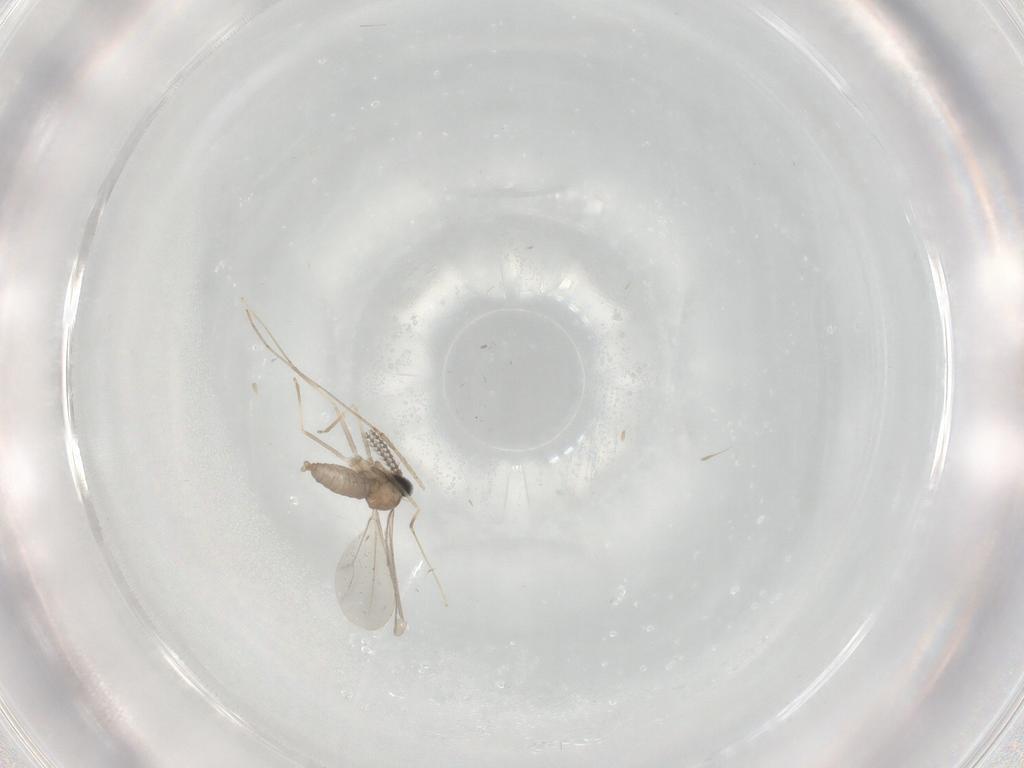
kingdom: Animalia
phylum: Arthropoda
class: Insecta
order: Diptera
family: Cecidomyiidae
